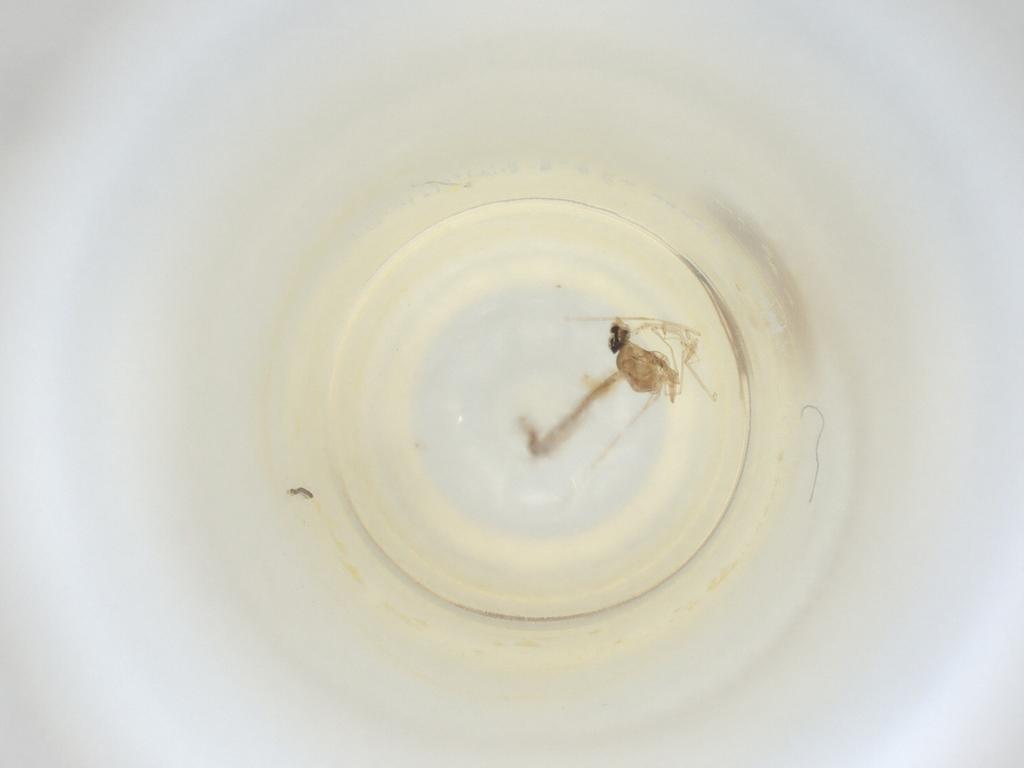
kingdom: Animalia
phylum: Arthropoda
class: Insecta
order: Diptera
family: Cecidomyiidae
